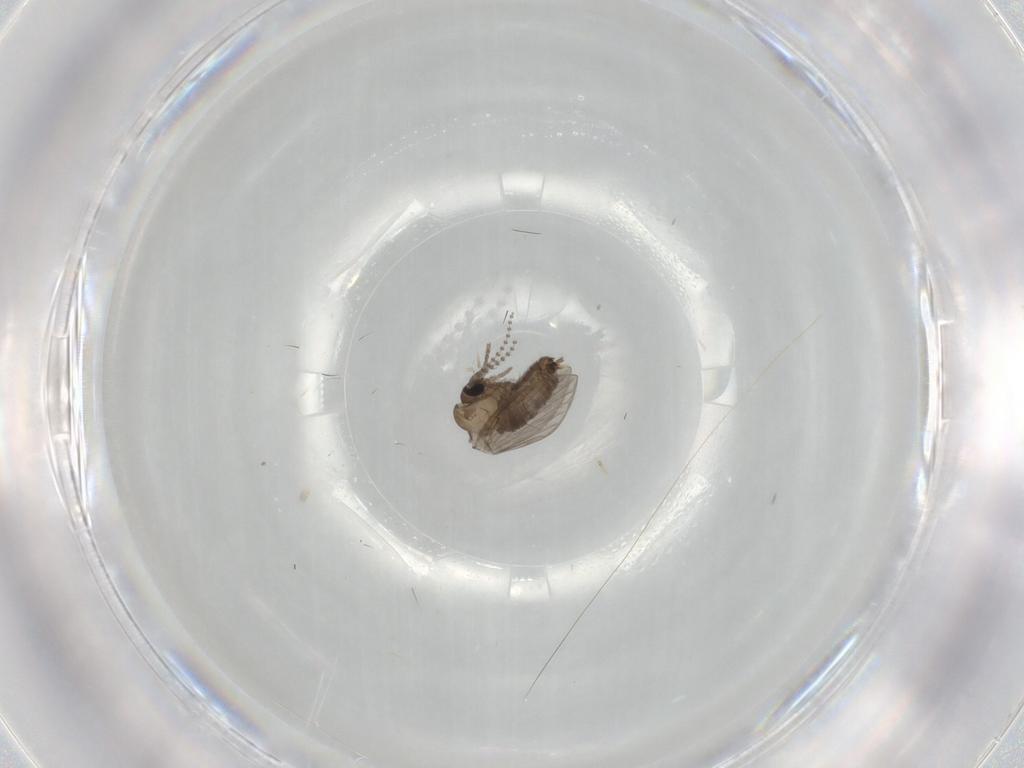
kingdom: Animalia
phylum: Arthropoda
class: Insecta
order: Diptera
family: Psychodidae
